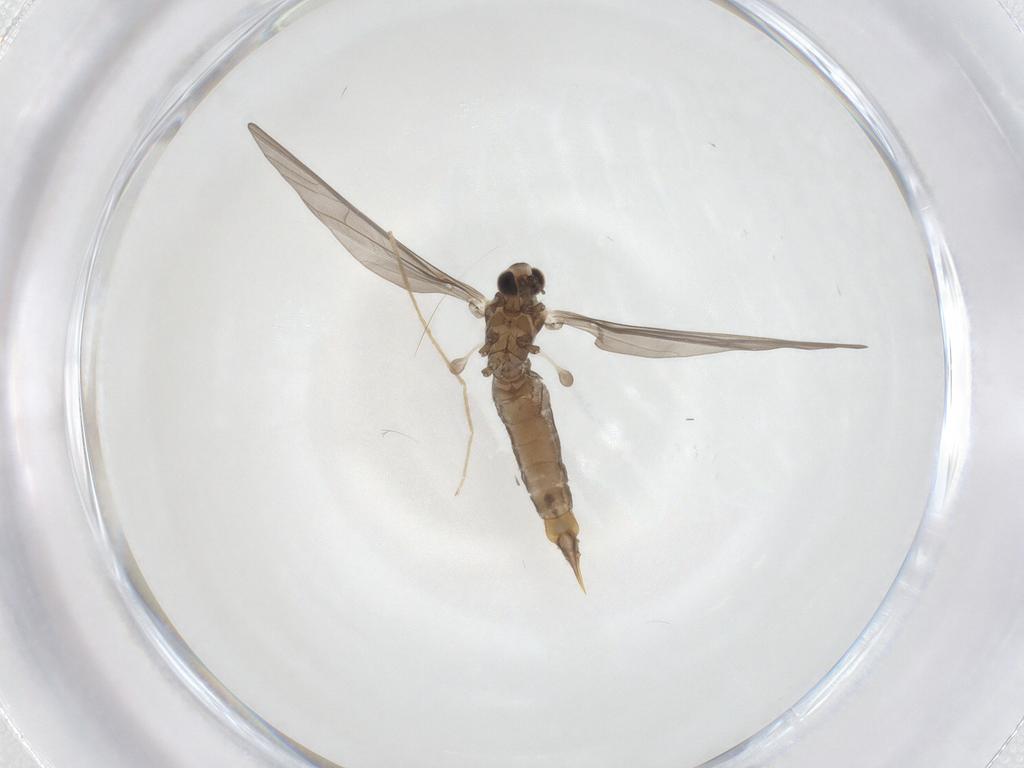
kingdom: Animalia
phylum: Arthropoda
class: Insecta
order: Diptera
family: Limoniidae
